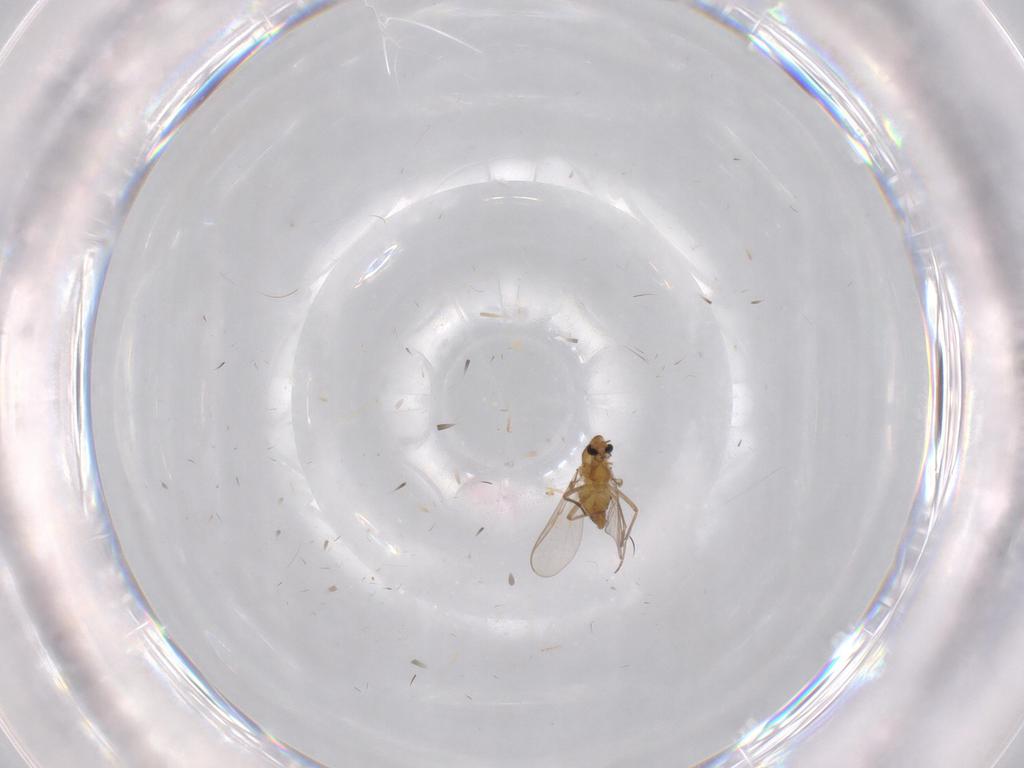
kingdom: Animalia
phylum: Arthropoda
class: Insecta
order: Diptera
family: Chironomidae
